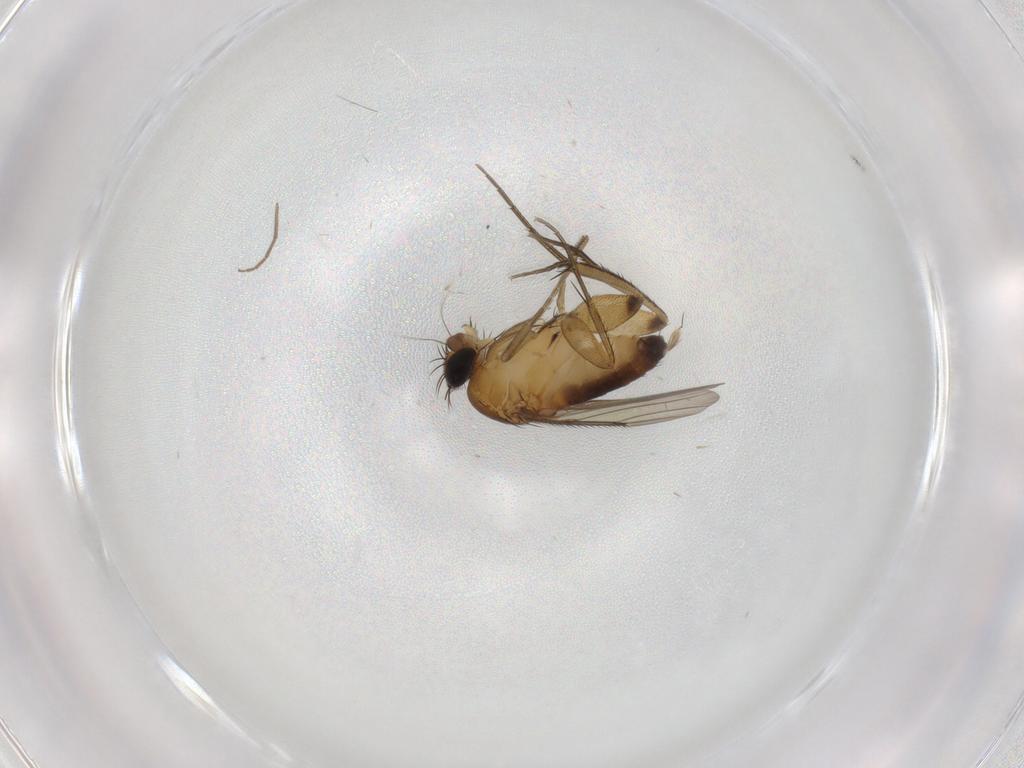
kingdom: Animalia
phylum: Arthropoda
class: Insecta
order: Diptera
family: Phoridae
